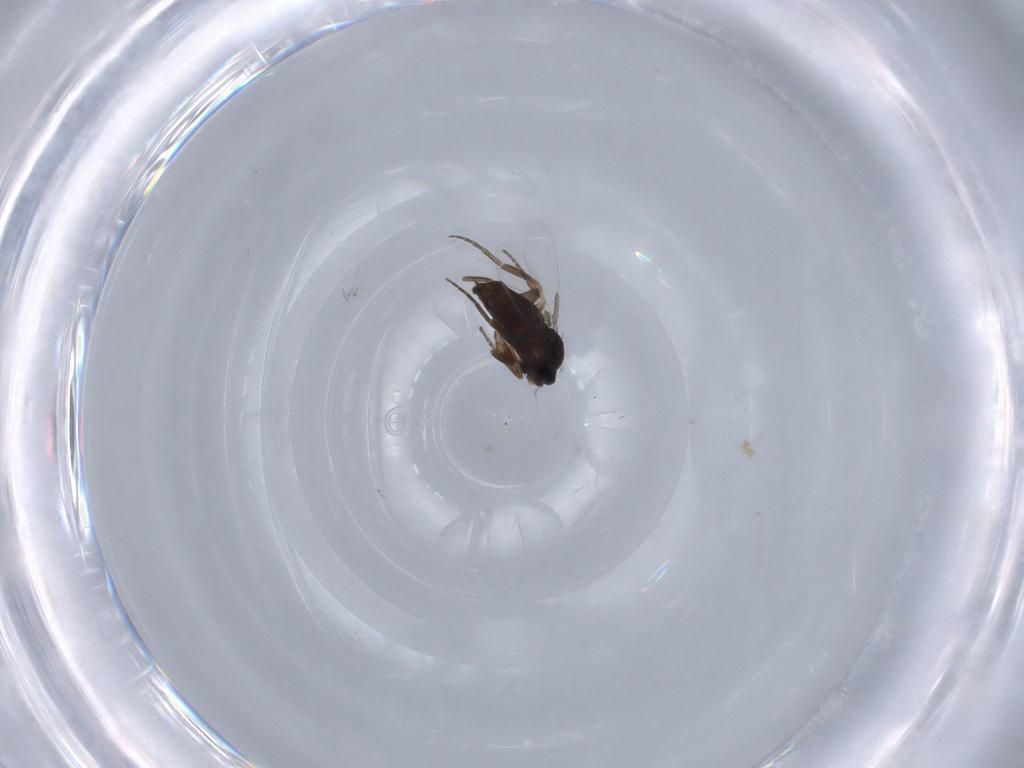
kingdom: Animalia
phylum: Arthropoda
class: Insecta
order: Diptera
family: Phoridae
